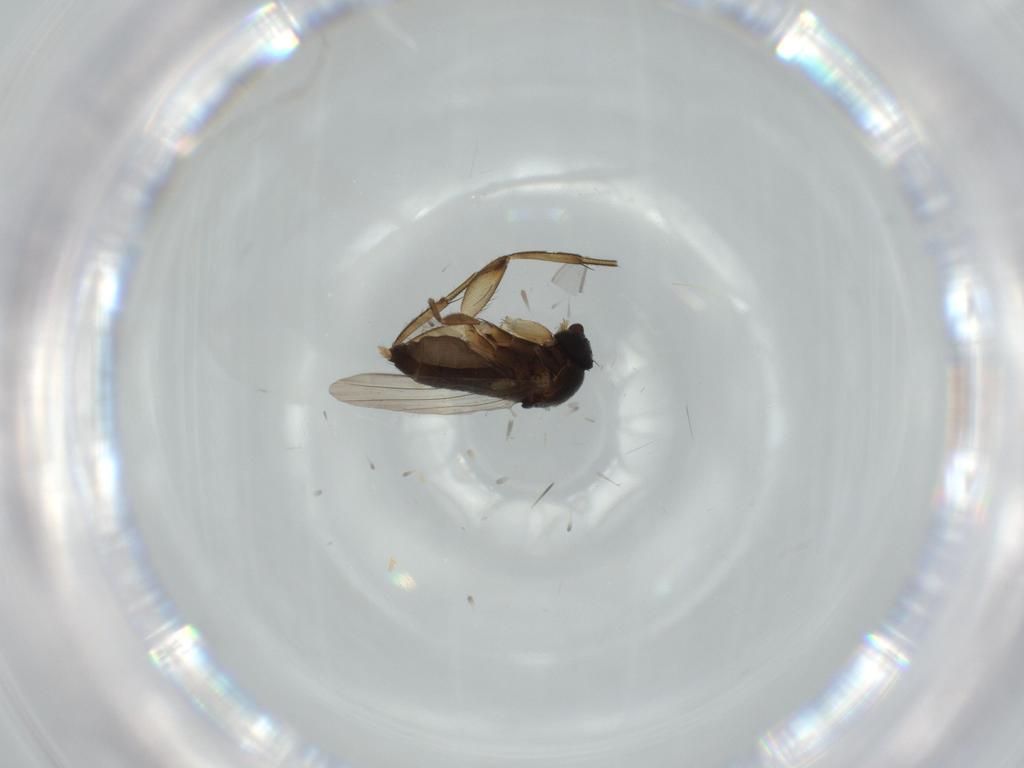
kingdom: Animalia
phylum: Arthropoda
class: Insecta
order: Diptera
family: Phoridae
